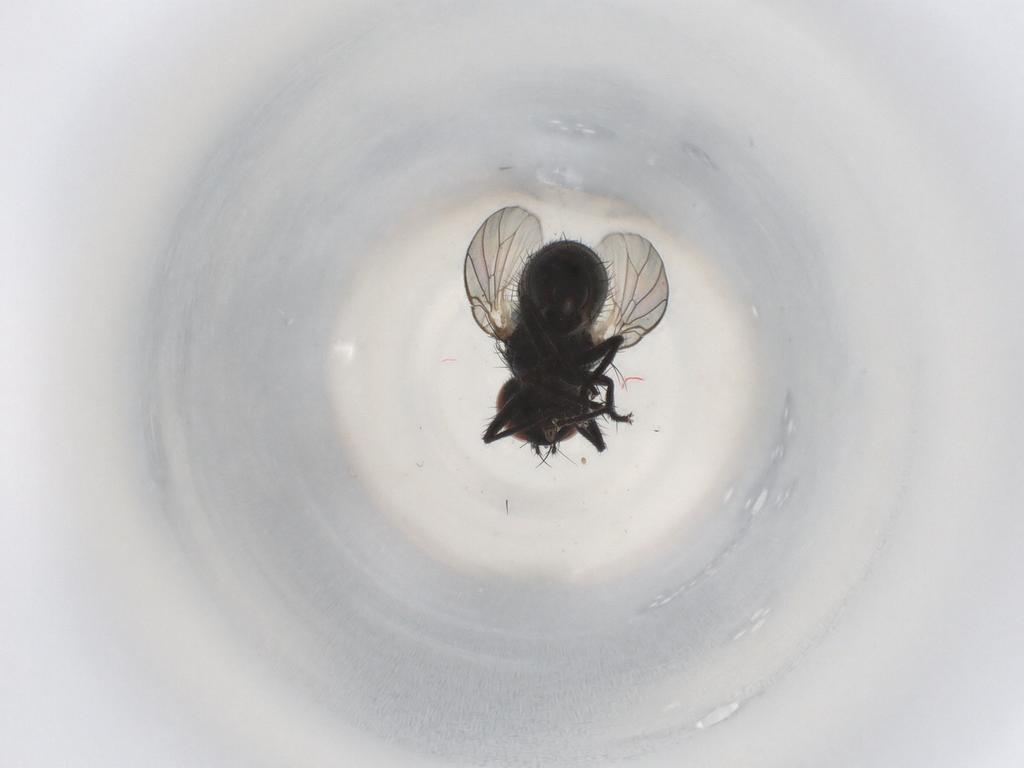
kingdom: Animalia
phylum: Arthropoda
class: Insecta
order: Diptera
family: Muscidae
